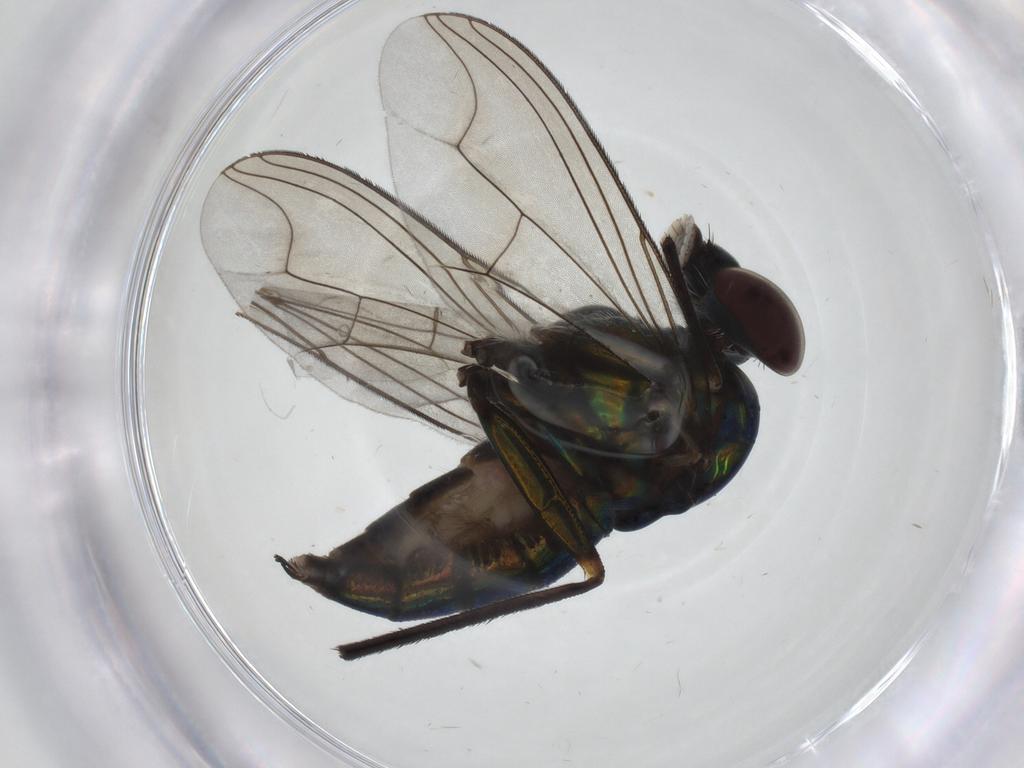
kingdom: Animalia
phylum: Arthropoda
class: Insecta
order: Diptera
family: Dolichopodidae
